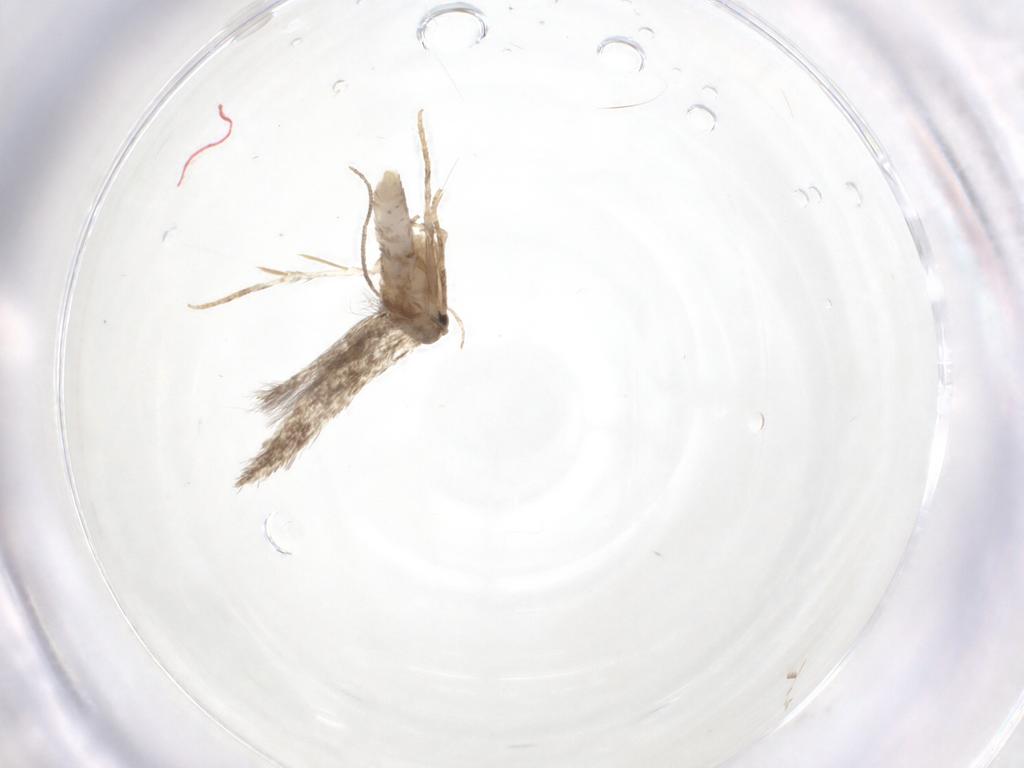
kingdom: Animalia
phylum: Arthropoda
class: Insecta
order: Lepidoptera
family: Elachistidae
